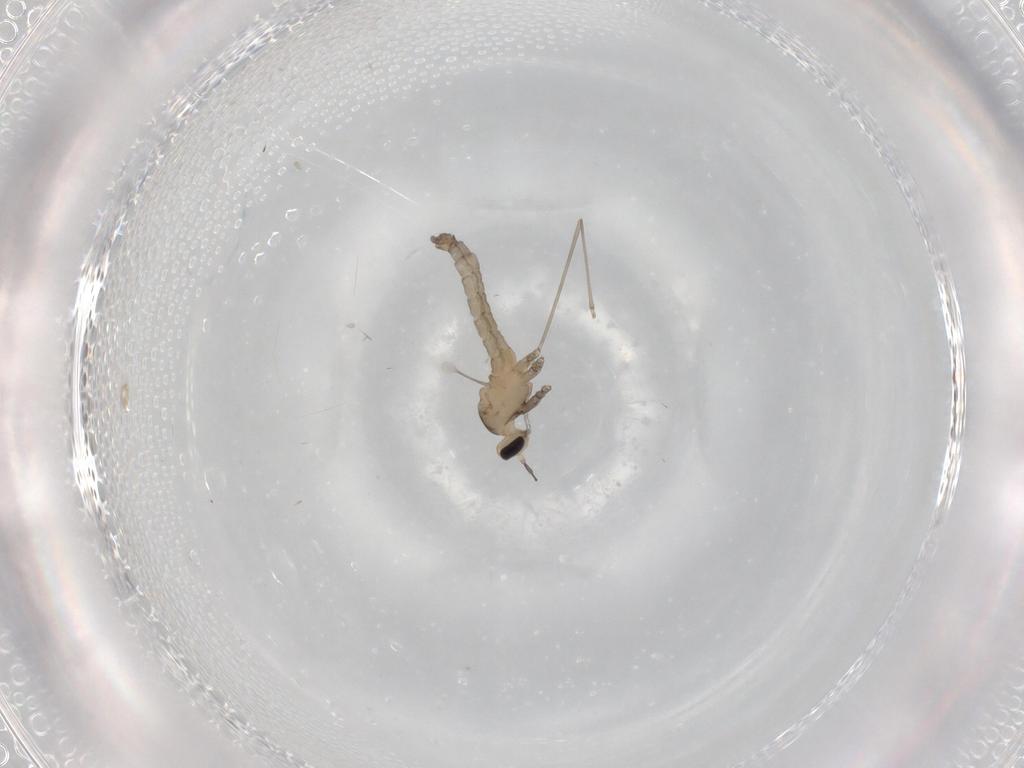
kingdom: Animalia
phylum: Arthropoda
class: Insecta
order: Diptera
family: Cecidomyiidae
